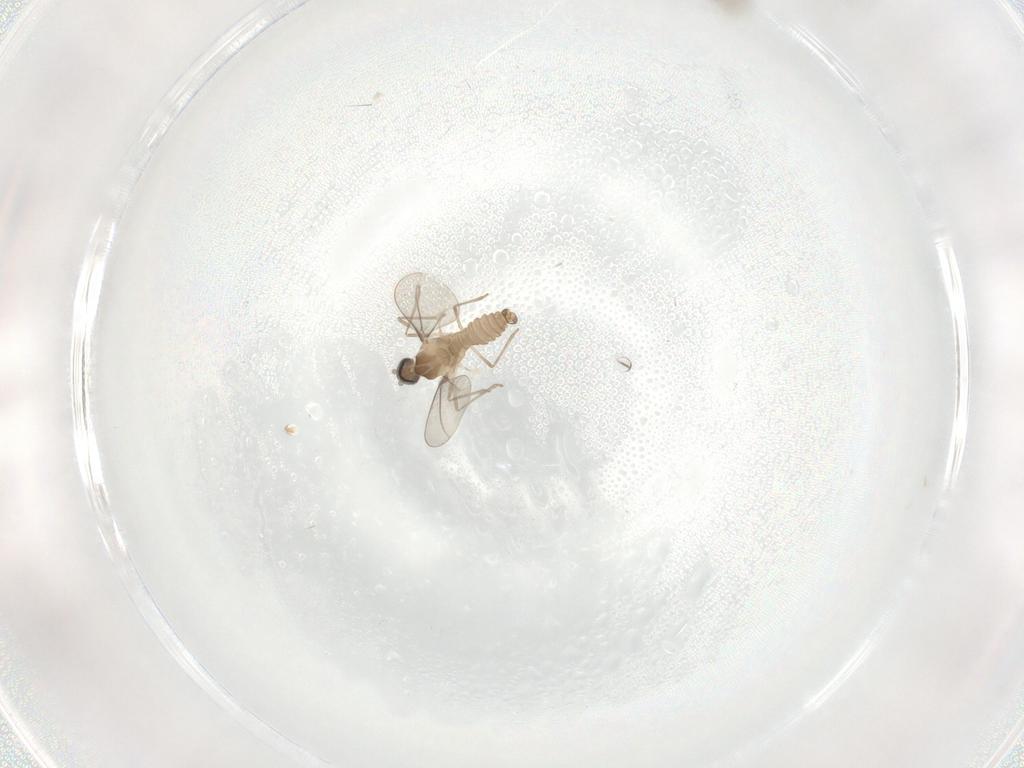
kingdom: Animalia
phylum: Arthropoda
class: Insecta
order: Diptera
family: Cecidomyiidae
